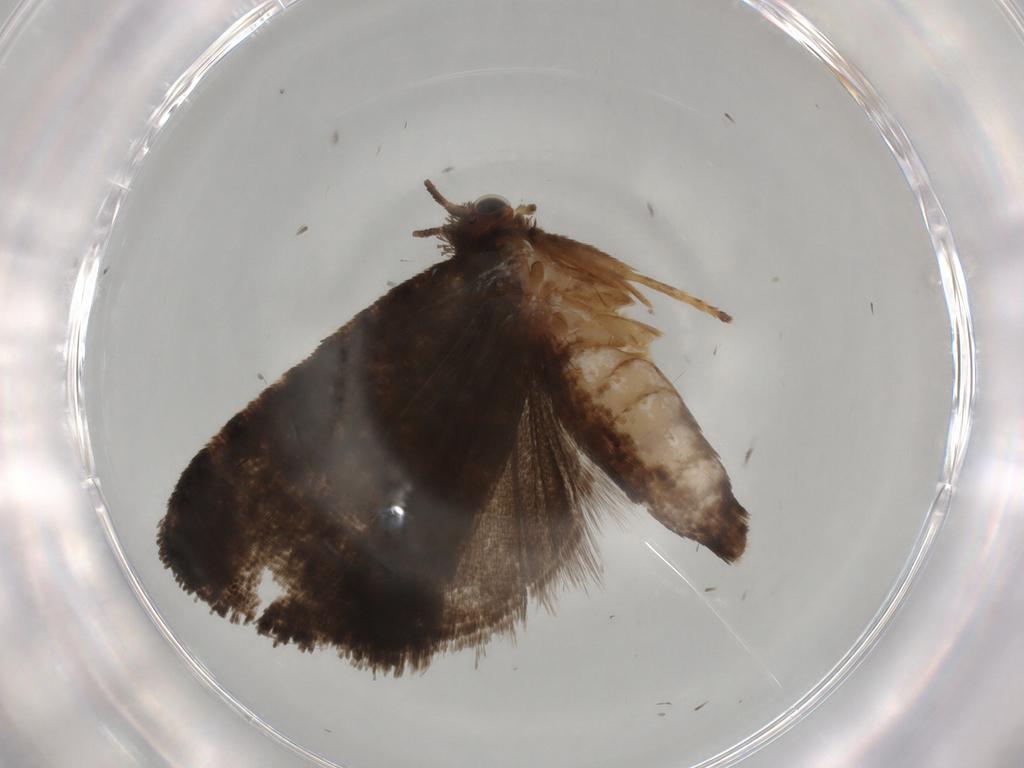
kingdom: Animalia
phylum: Arthropoda
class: Insecta
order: Lepidoptera
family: Tortricidae
